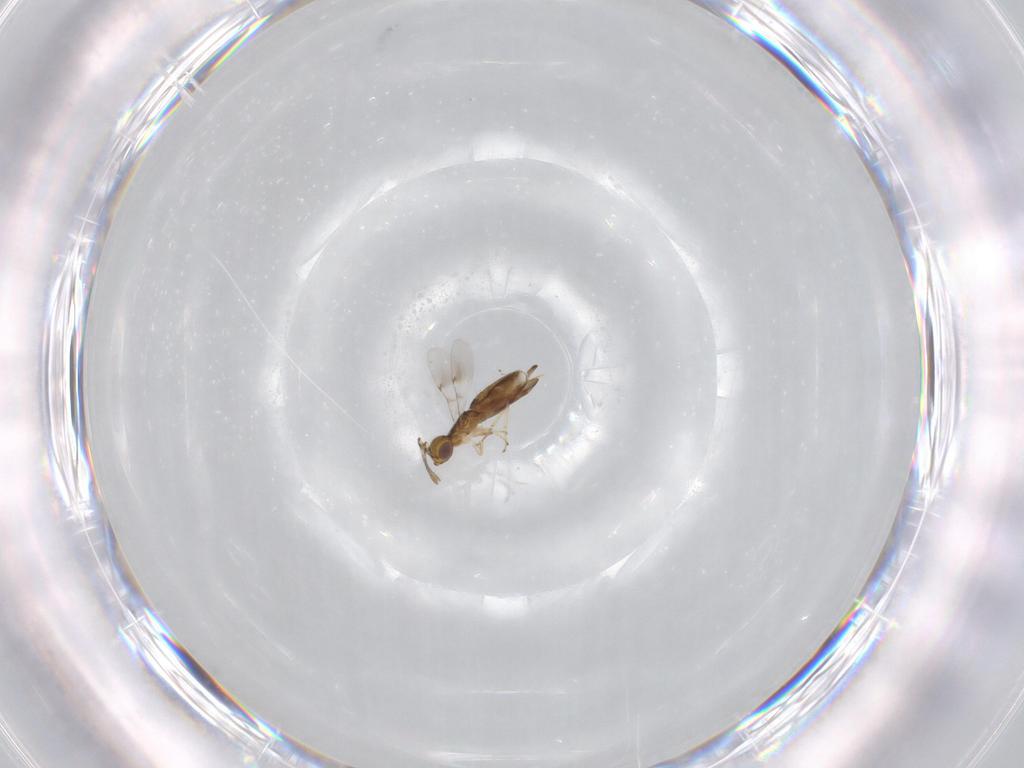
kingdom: Animalia
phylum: Arthropoda
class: Insecta
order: Hymenoptera
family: Encyrtidae
